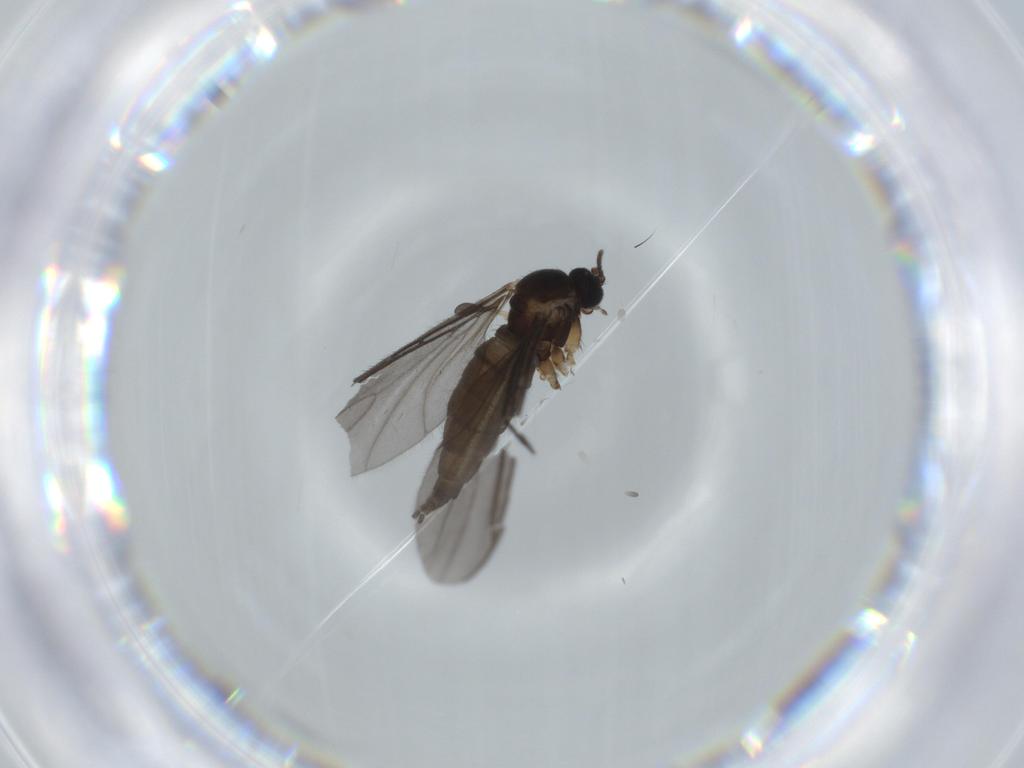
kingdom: Animalia
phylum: Arthropoda
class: Insecta
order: Diptera
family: Sciaridae
